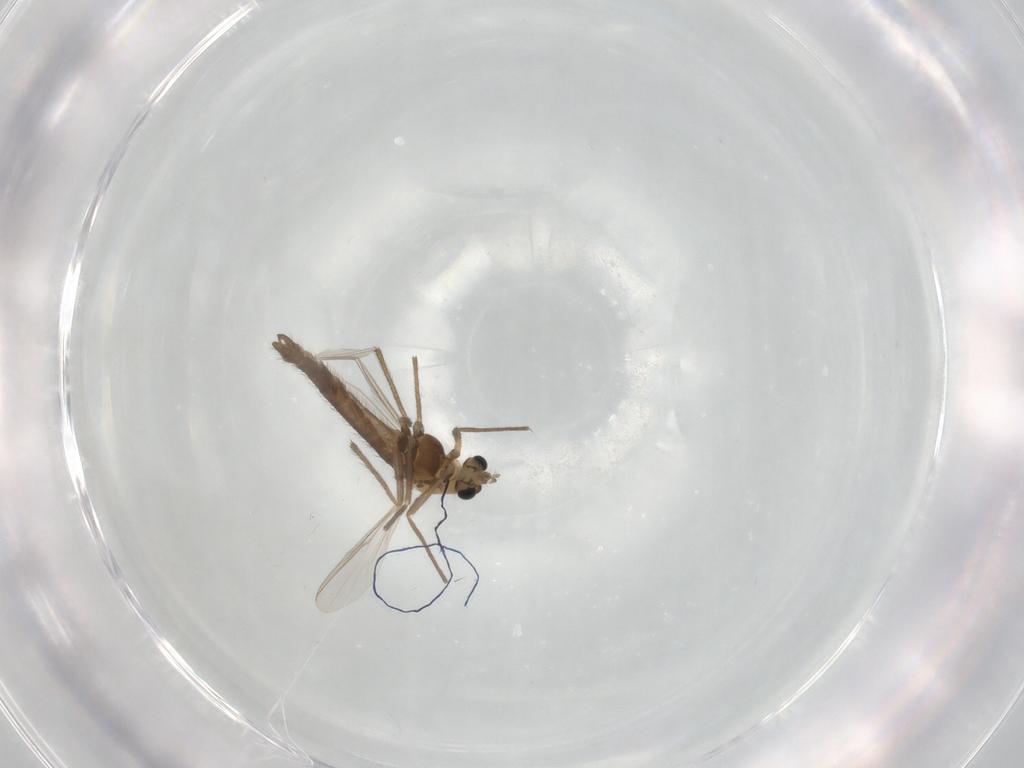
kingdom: Animalia
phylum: Arthropoda
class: Insecta
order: Diptera
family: Chironomidae
